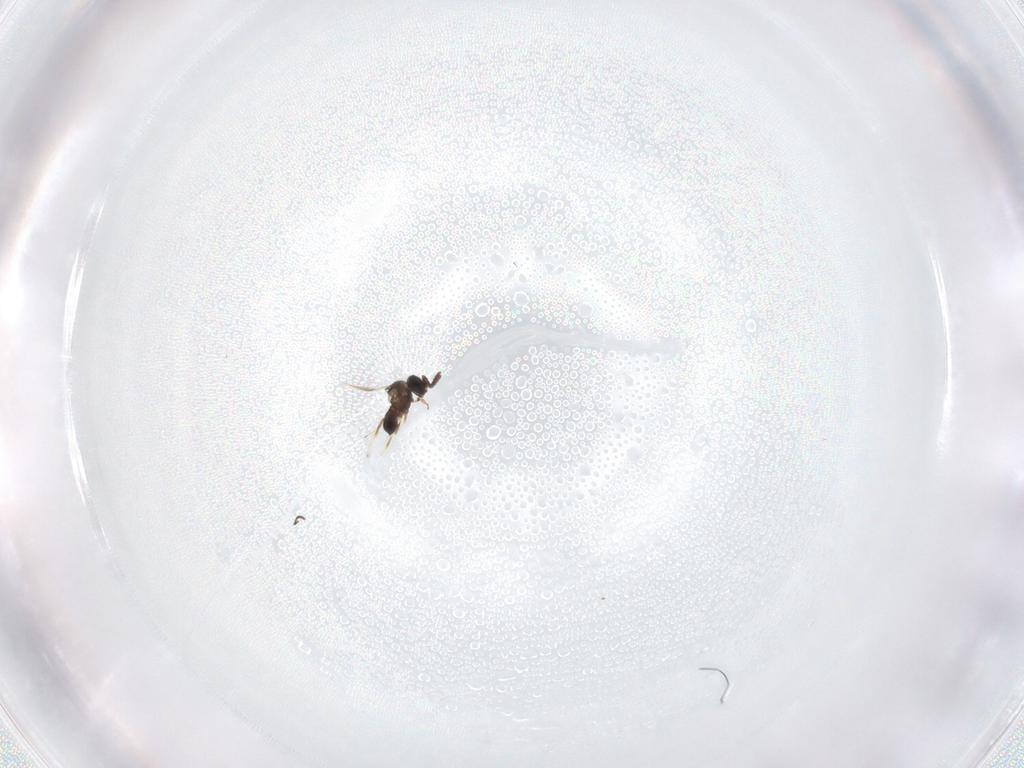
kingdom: Animalia
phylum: Arthropoda
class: Insecta
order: Hymenoptera
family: Scelionidae
